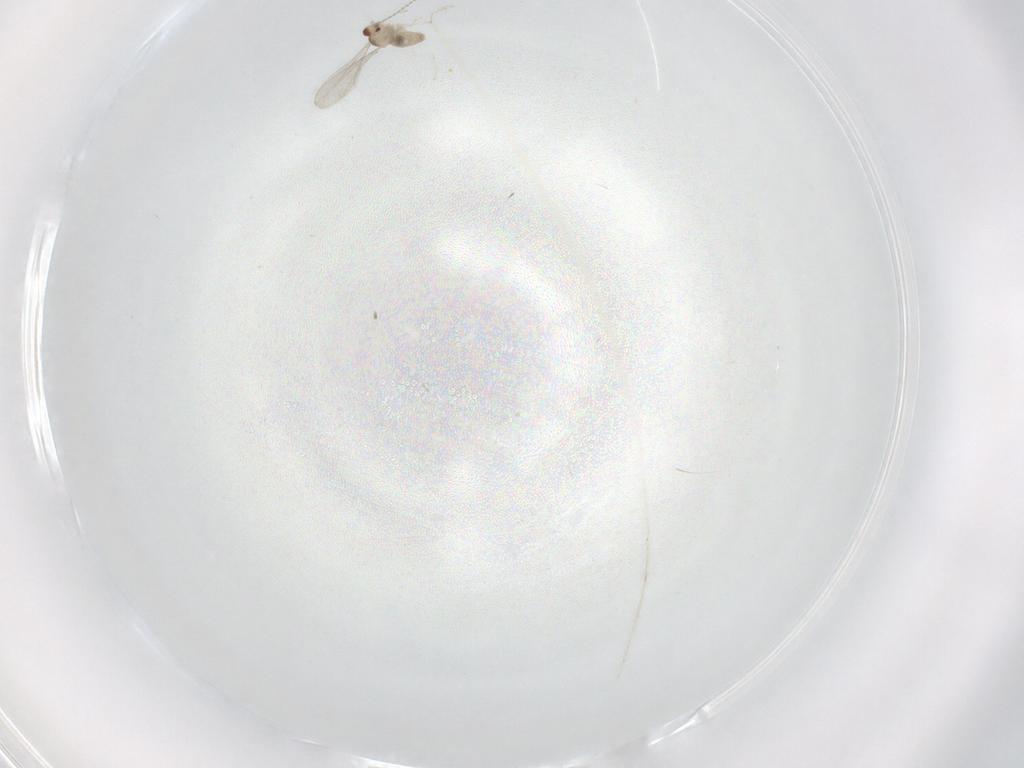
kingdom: Animalia
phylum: Arthropoda
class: Insecta
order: Diptera
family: Cecidomyiidae
